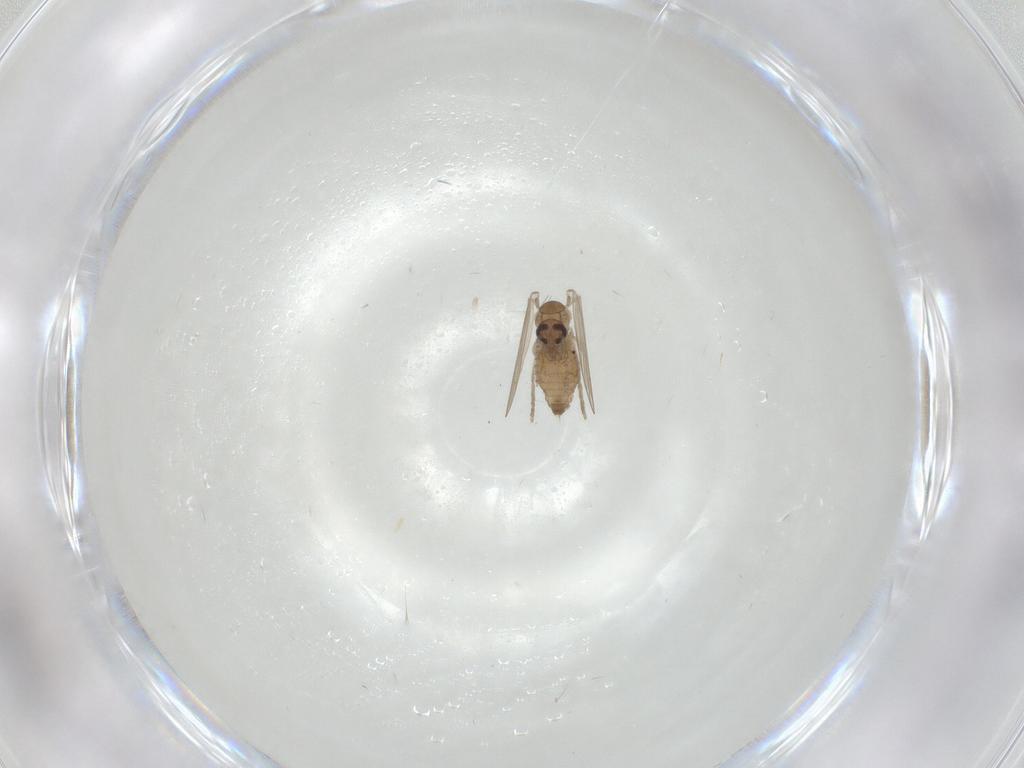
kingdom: Animalia
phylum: Arthropoda
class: Insecta
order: Diptera
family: Psychodidae
